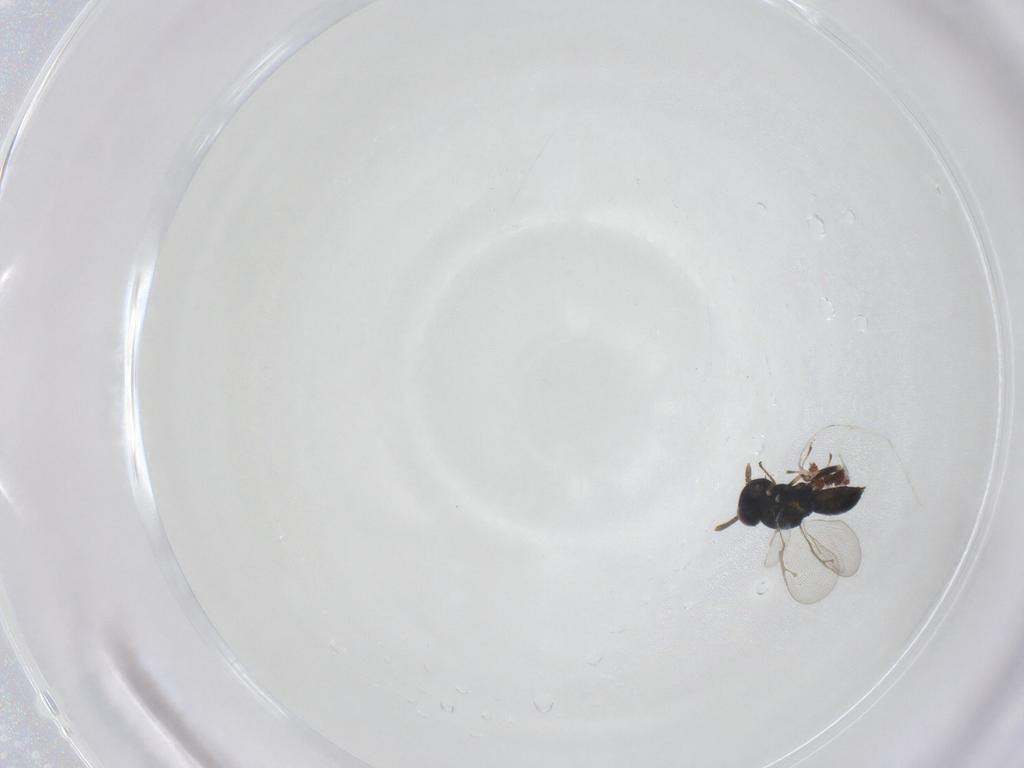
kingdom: Animalia
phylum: Arthropoda
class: Insecta
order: Hymenoptera
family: Pteromalidae
